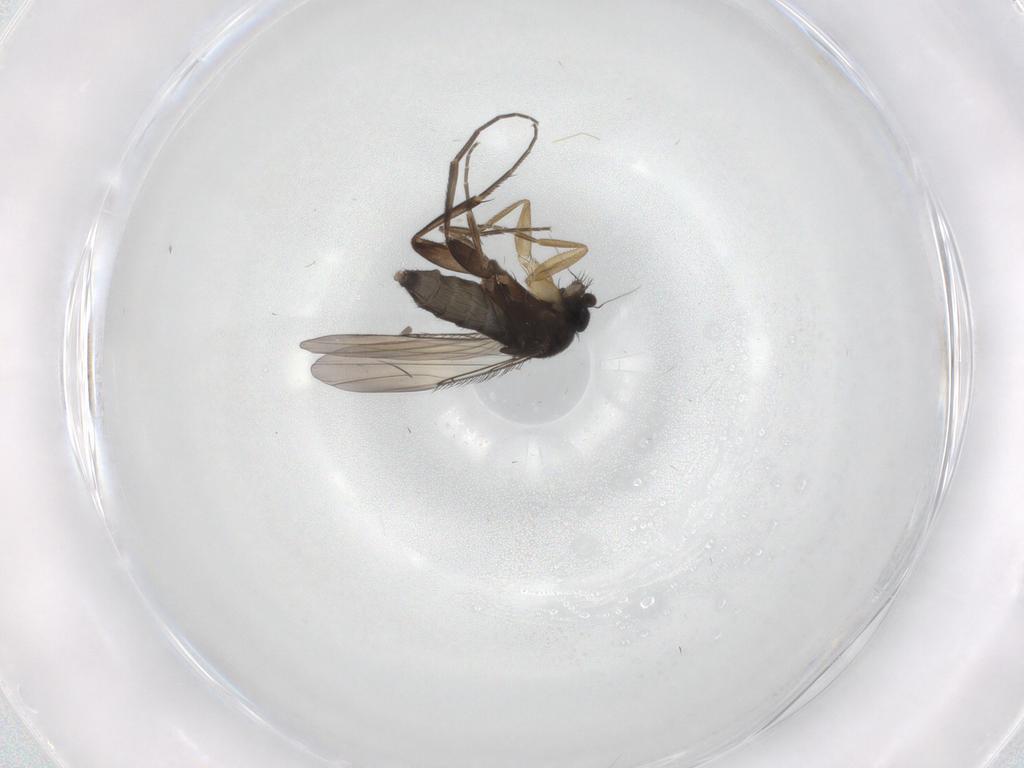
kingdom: Animalia
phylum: Arthropoda
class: Insecta
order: Diptera
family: Phoridae
